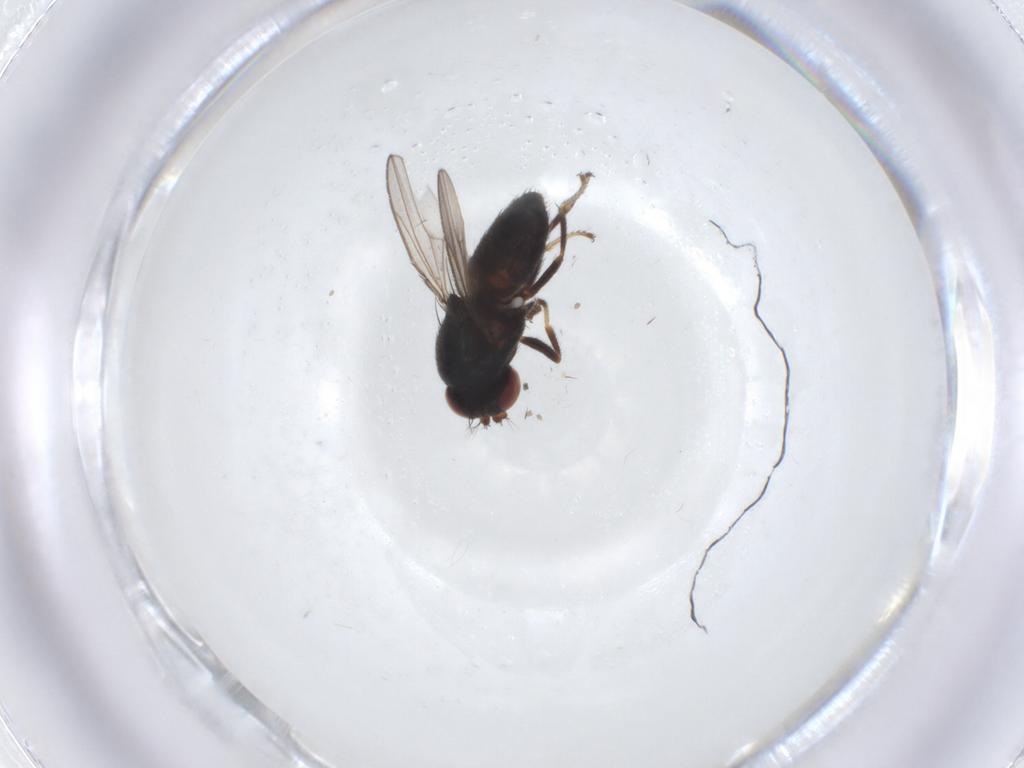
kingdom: Animalia
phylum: Arthropoda
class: Insecta
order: Diptera
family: Ephydridae
